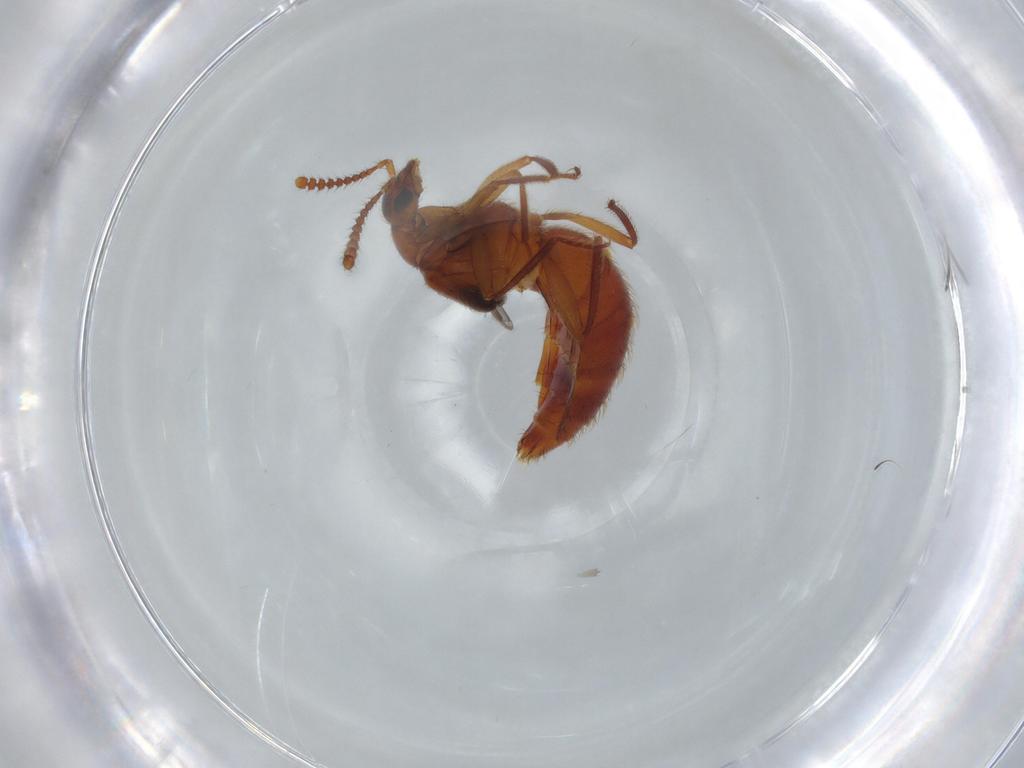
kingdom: Animalia
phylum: Arthropoda
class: Insecta
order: Coleoptera
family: Staphylinidae
